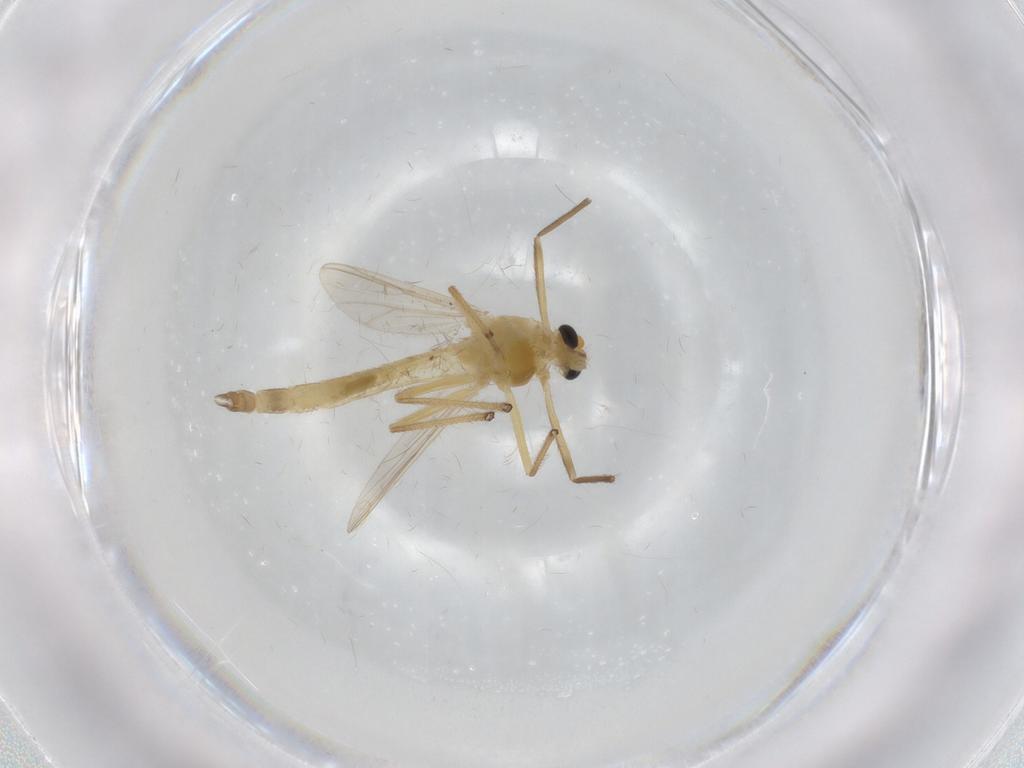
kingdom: Animalia
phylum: Arthropoda
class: Insecta
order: Diptera
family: Chironomidae
